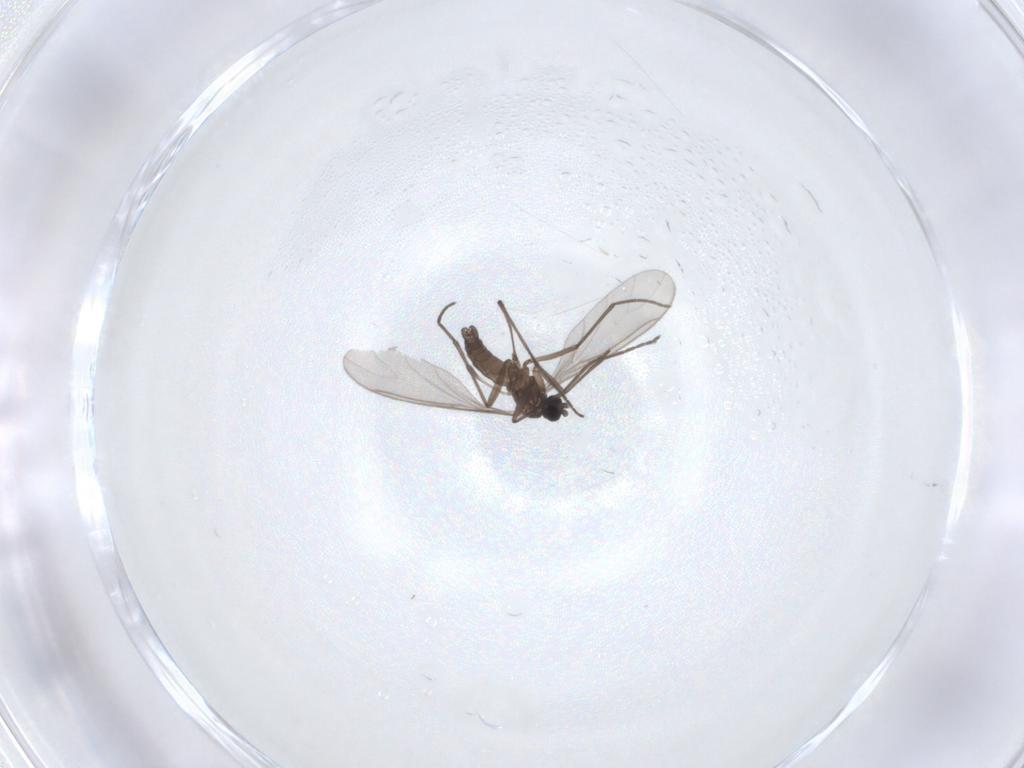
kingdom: Animalia
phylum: Arthropoda
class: Insecta
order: Diptera
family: Sciaridae
